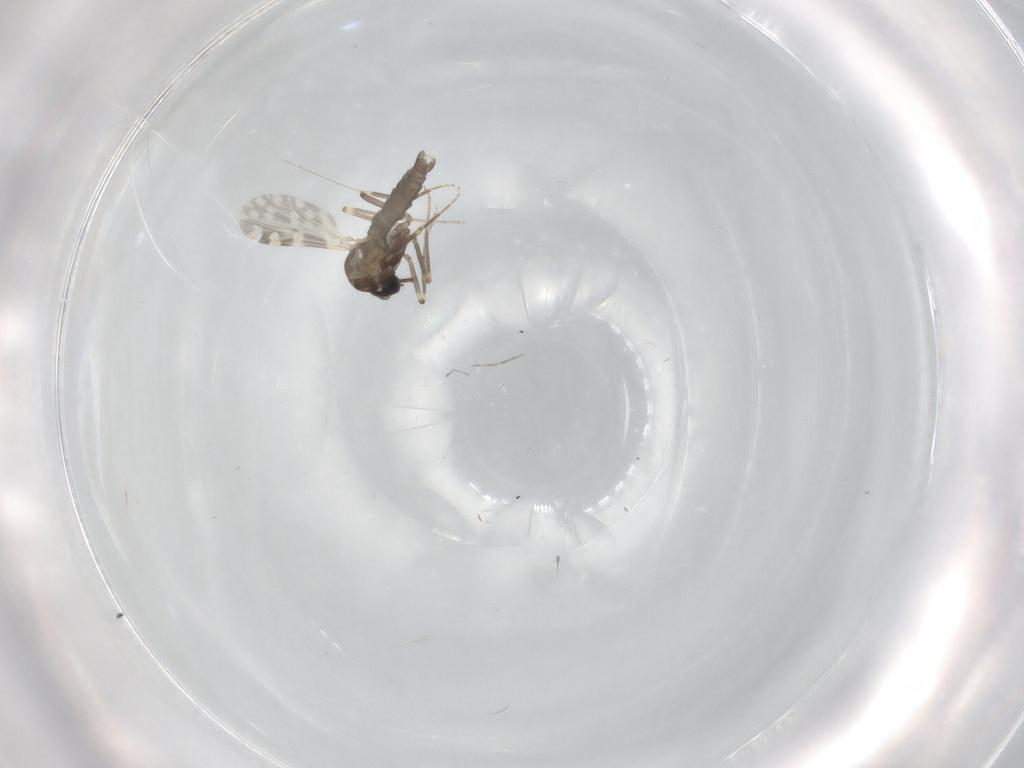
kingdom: Animalia
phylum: Arthropoda
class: Insecta
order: Diptera
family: Ceratopogonidae
